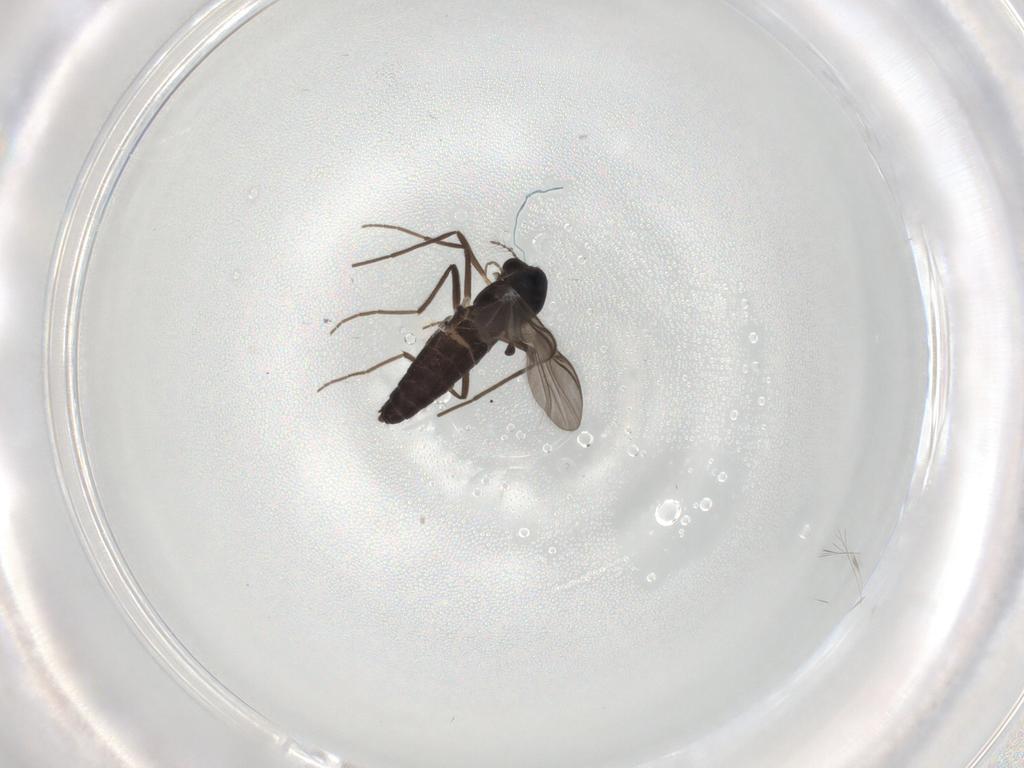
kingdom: Animalia
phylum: Arthropoda
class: Insecta
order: Diptera
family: Chironomidae
